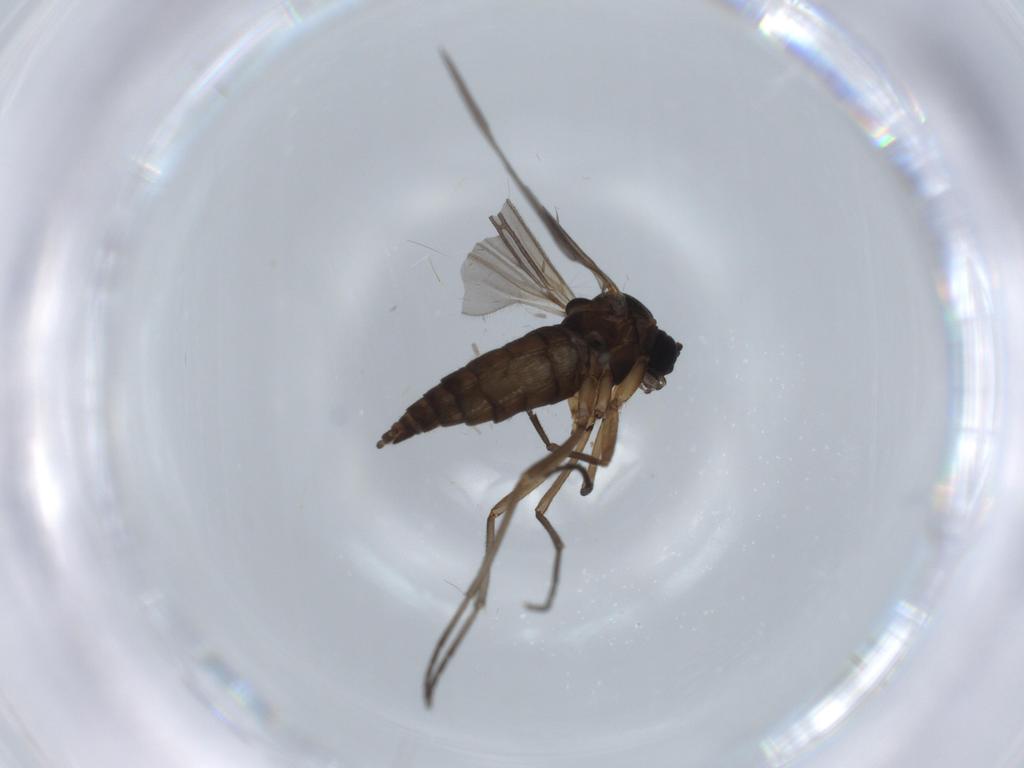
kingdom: Animalia
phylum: Arthropoda
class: Insecta
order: Diptera
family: Sciaridae
